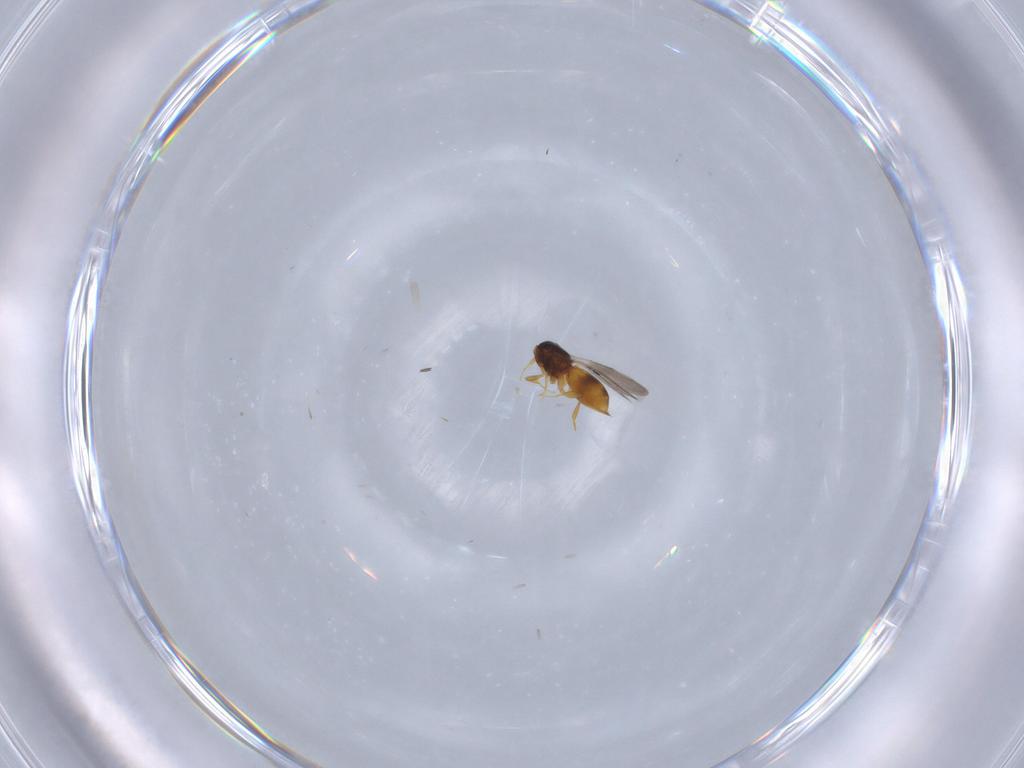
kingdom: Animalia
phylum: Arthropoda
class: Insecta
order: Hymenoptera
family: Ceraphronidae
